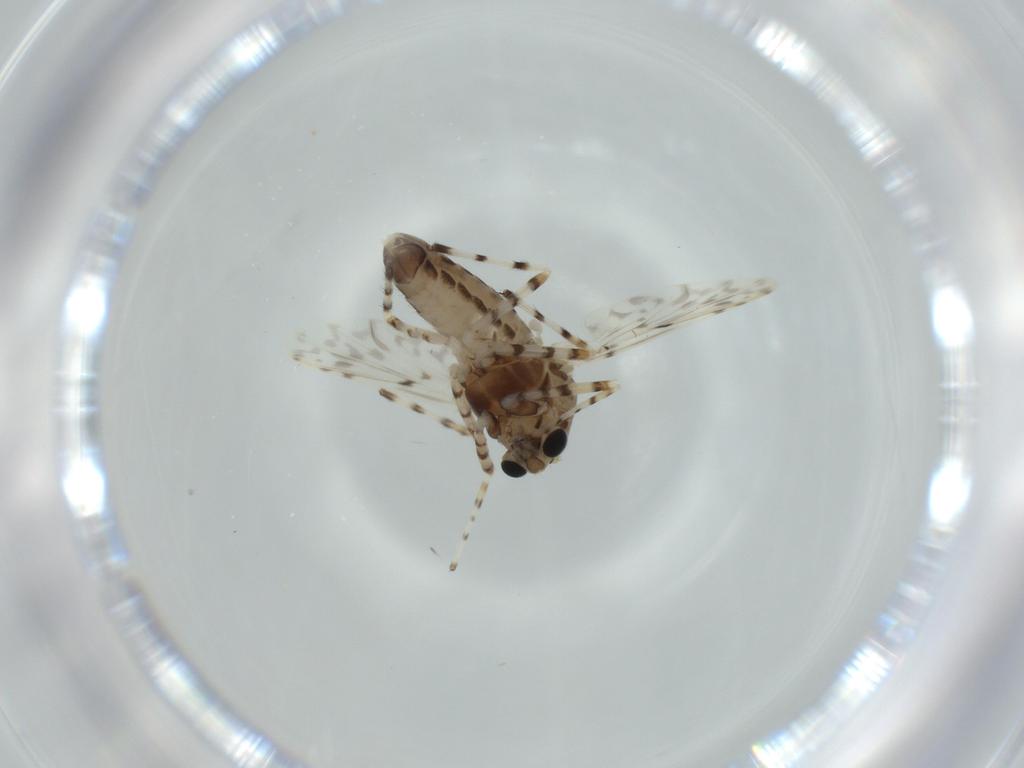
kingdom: Animalia
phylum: Arthropoda
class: Insecta
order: Diptera
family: Chironomidae
